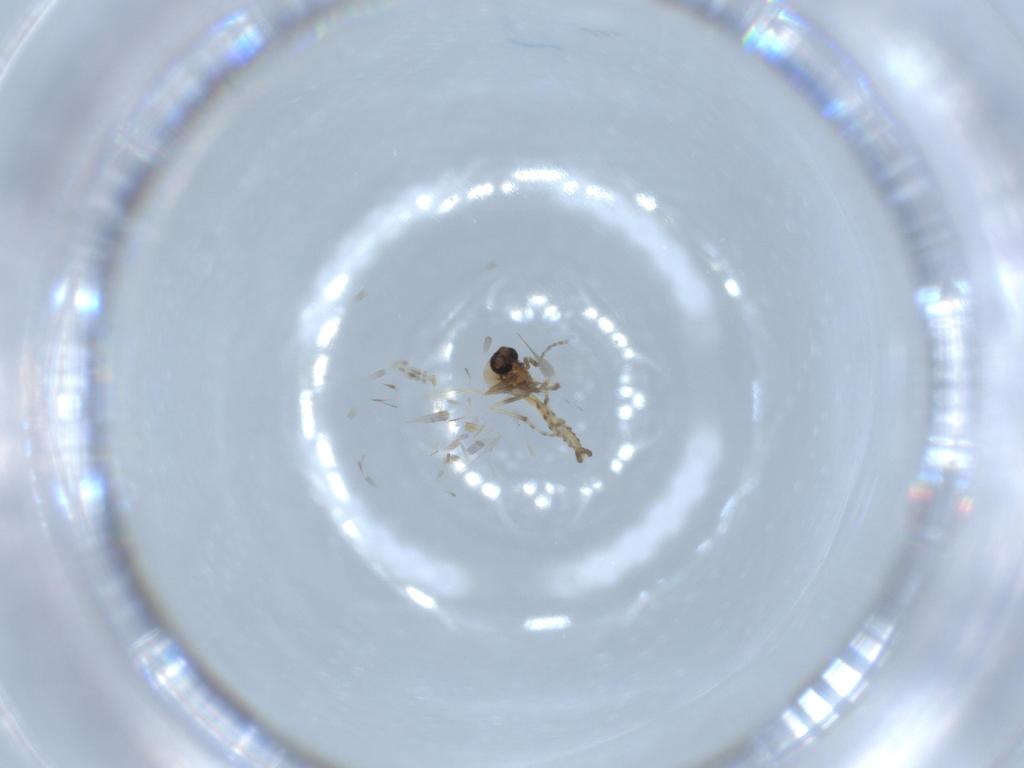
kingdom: Animalia
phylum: Arthropoda
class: Insecta
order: Diptera
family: Ceratopogonidae
